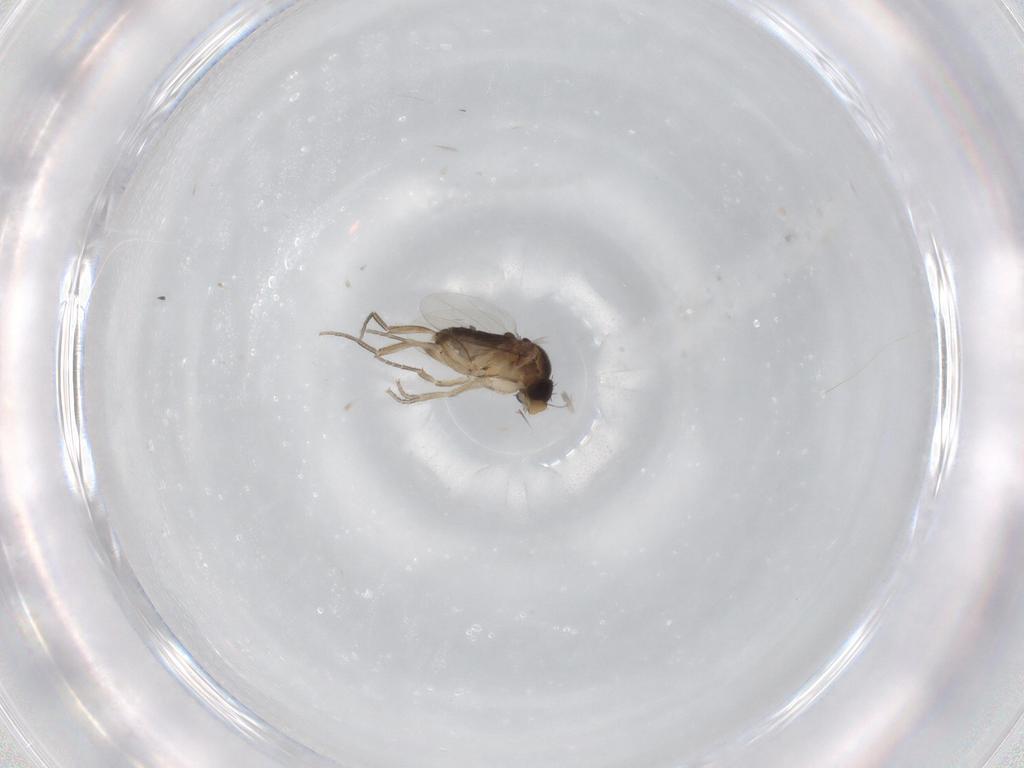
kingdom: Animalia
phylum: Arthropoda
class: Insecta
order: Diptera
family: Phoridae
